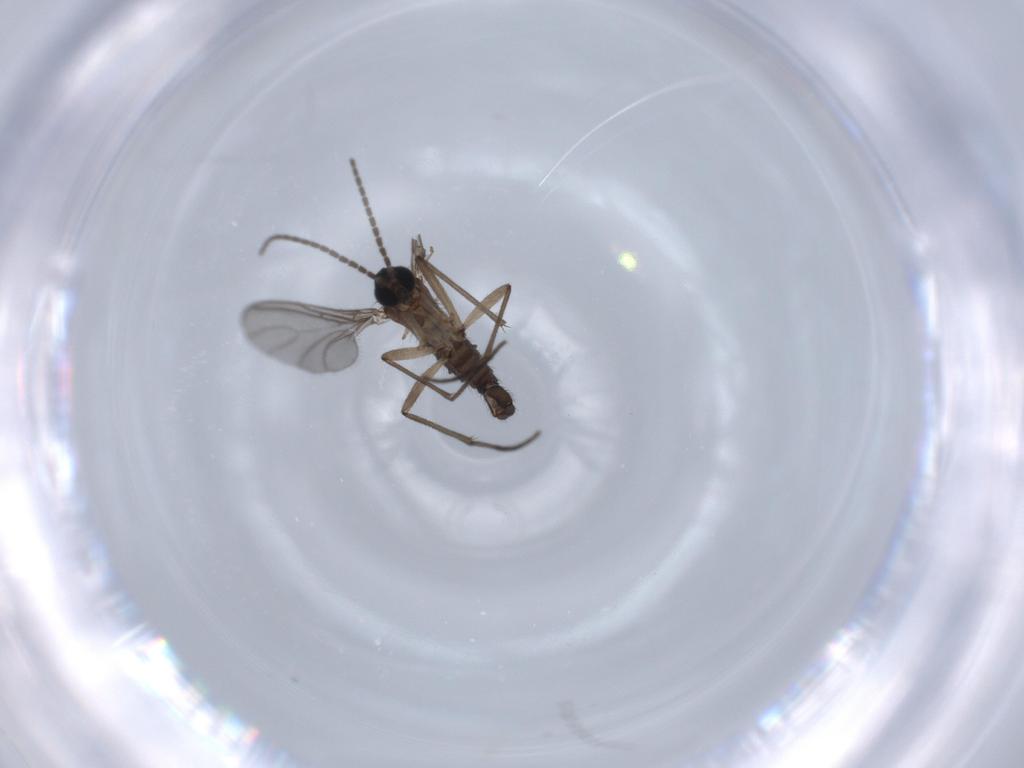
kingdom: Animalia
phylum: Arthropoda
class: Insecta
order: Diptera
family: Sciaridae
